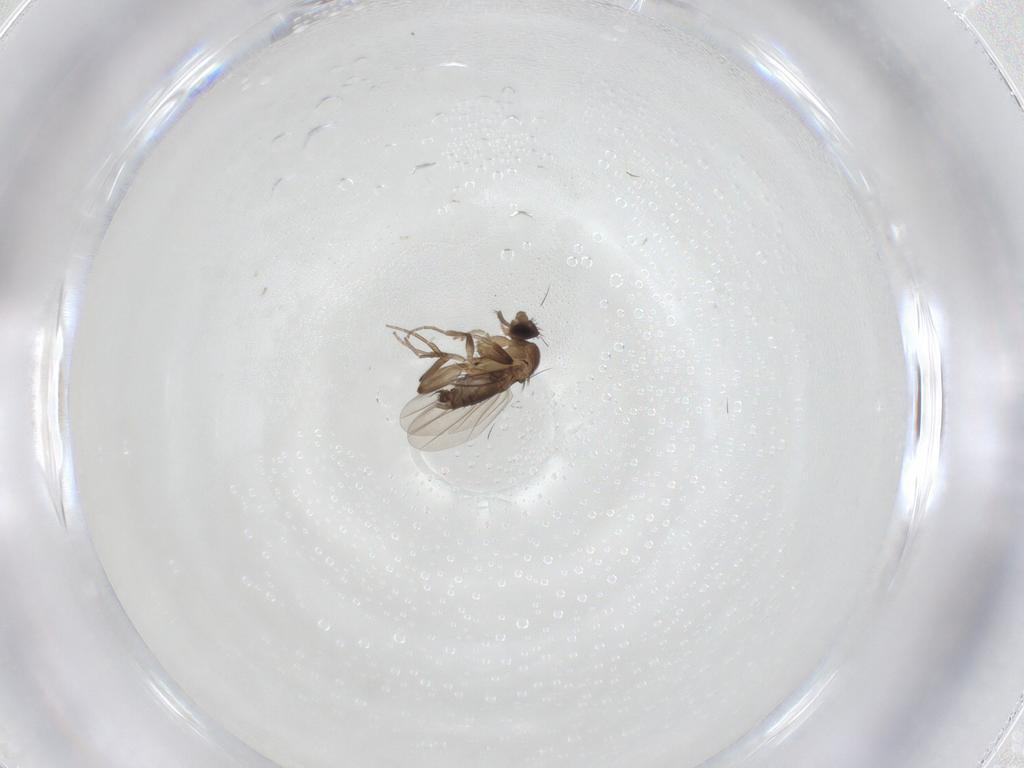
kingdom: Animalia
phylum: Arthropoda
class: Insecta
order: Diptera
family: Phoridae
